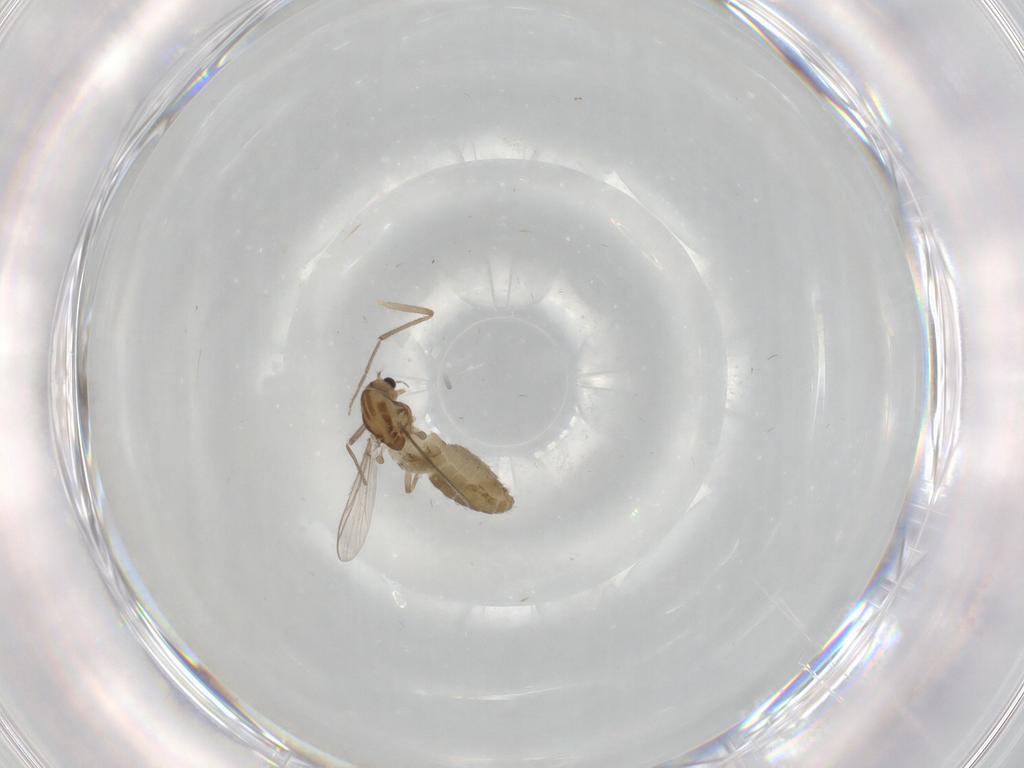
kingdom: Animalia
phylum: Arthropoda
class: Insecta
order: Diptera
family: Chironomidae
